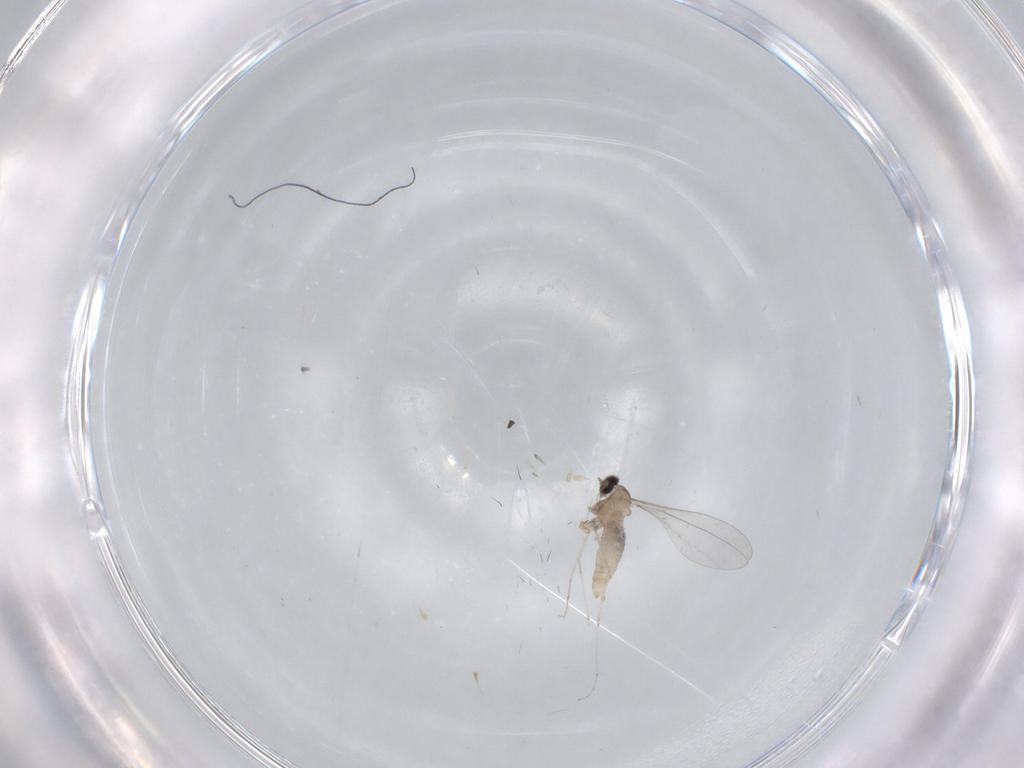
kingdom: Animalia
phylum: Arthropoda
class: Insecta
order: Diptera
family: Cecidomyiidae
